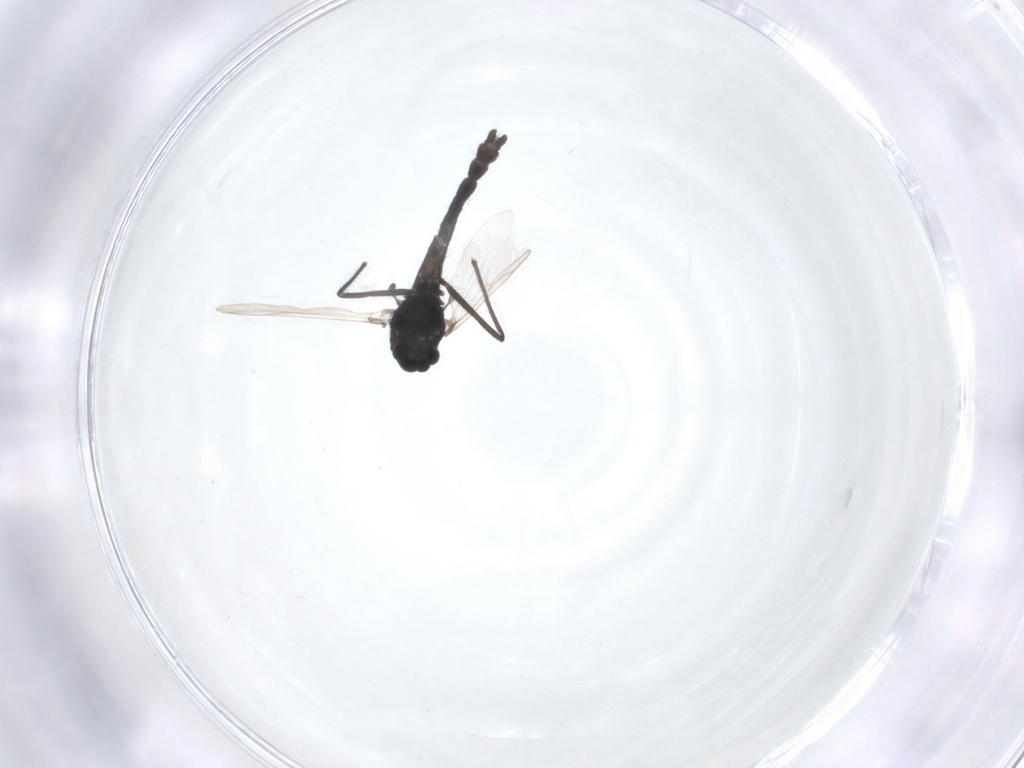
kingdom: Animalia
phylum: Arthropoda
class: Insecta
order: Diptera
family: Chironomidae
